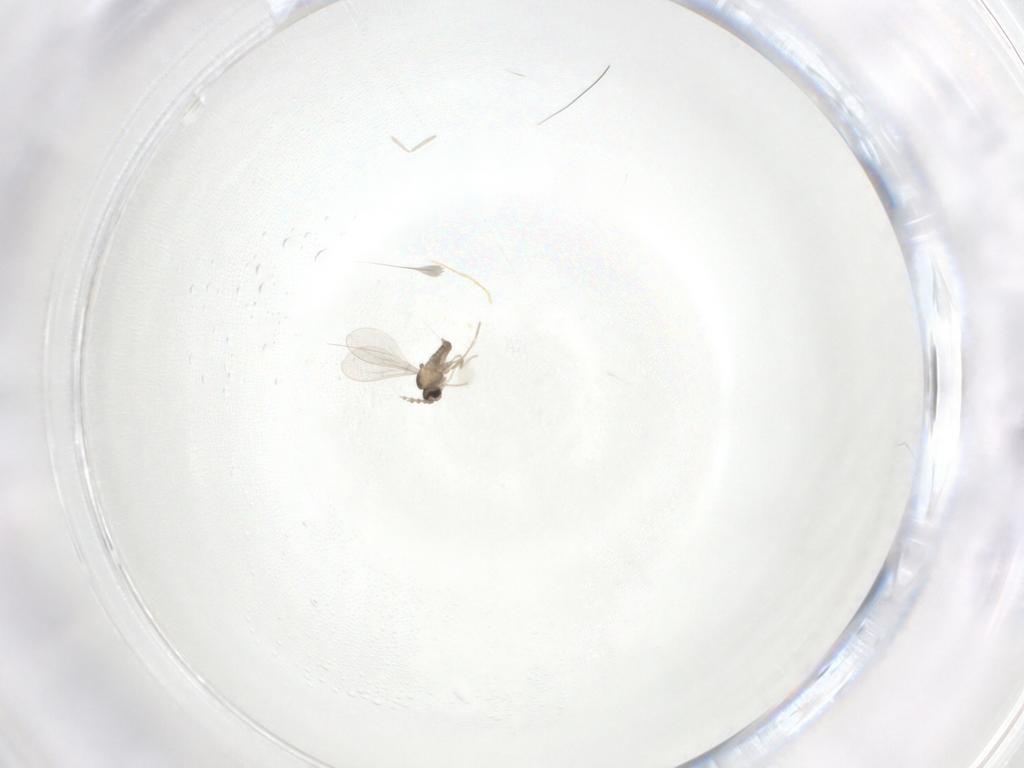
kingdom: Animalia
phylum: Arthropoda
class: Insecta
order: Diptera
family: Cecidomyiidae
